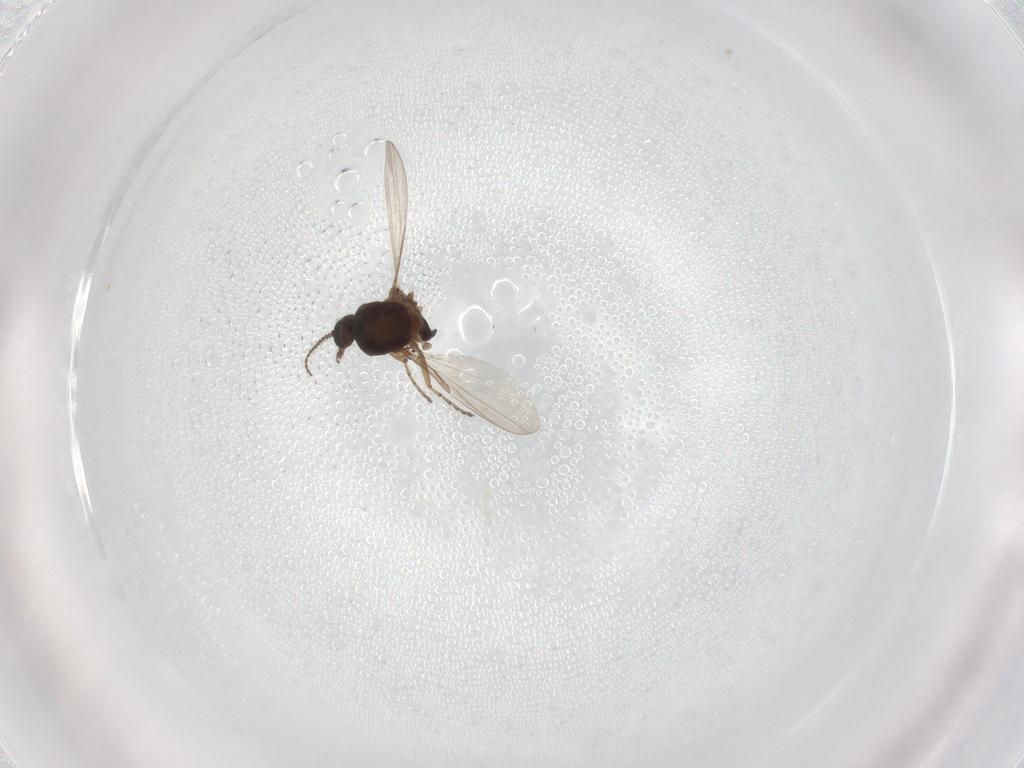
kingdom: Animalia
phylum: Arthropoda
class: Insecta
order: Diptera
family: Ceratopogonidae
